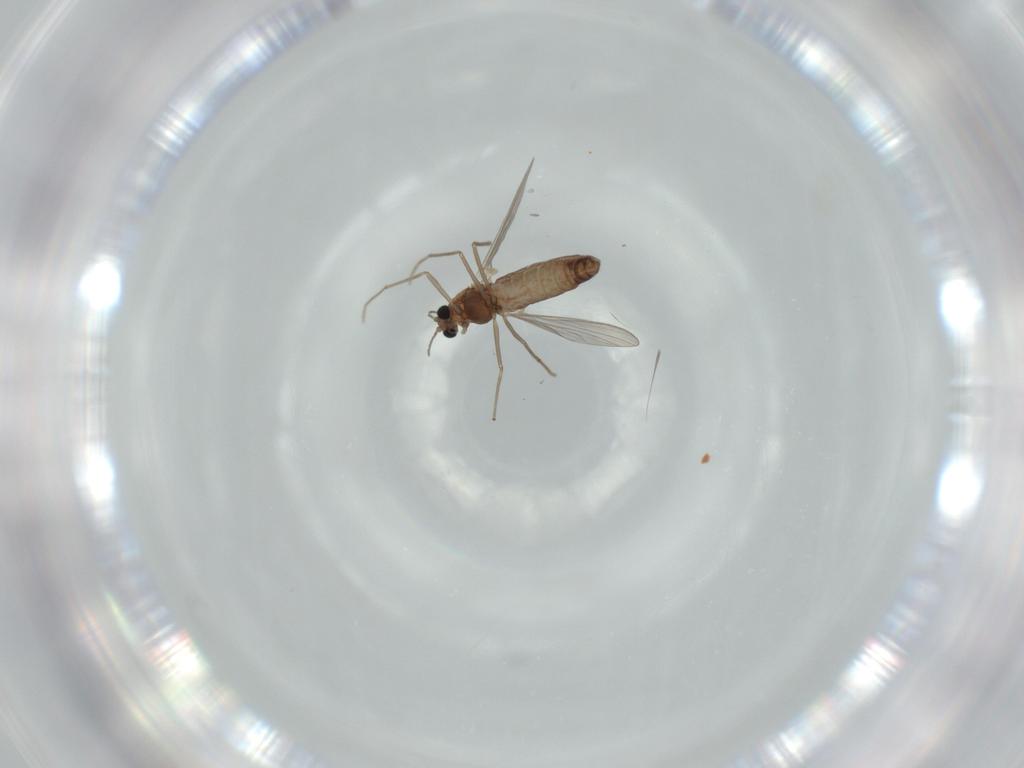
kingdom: Animalia
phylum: Arthropoda
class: Insecta
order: Diptera
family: Chironomidae
